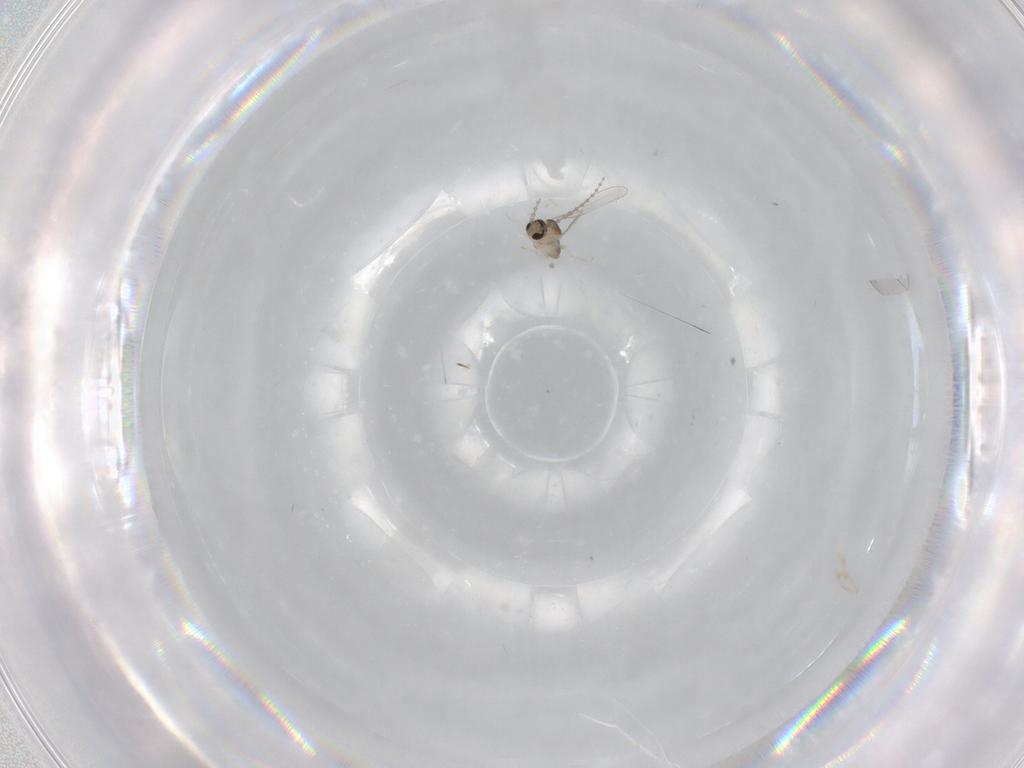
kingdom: Animalia
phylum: Arthropoda
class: Insecta
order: Diptera
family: Cecidomyiidae
